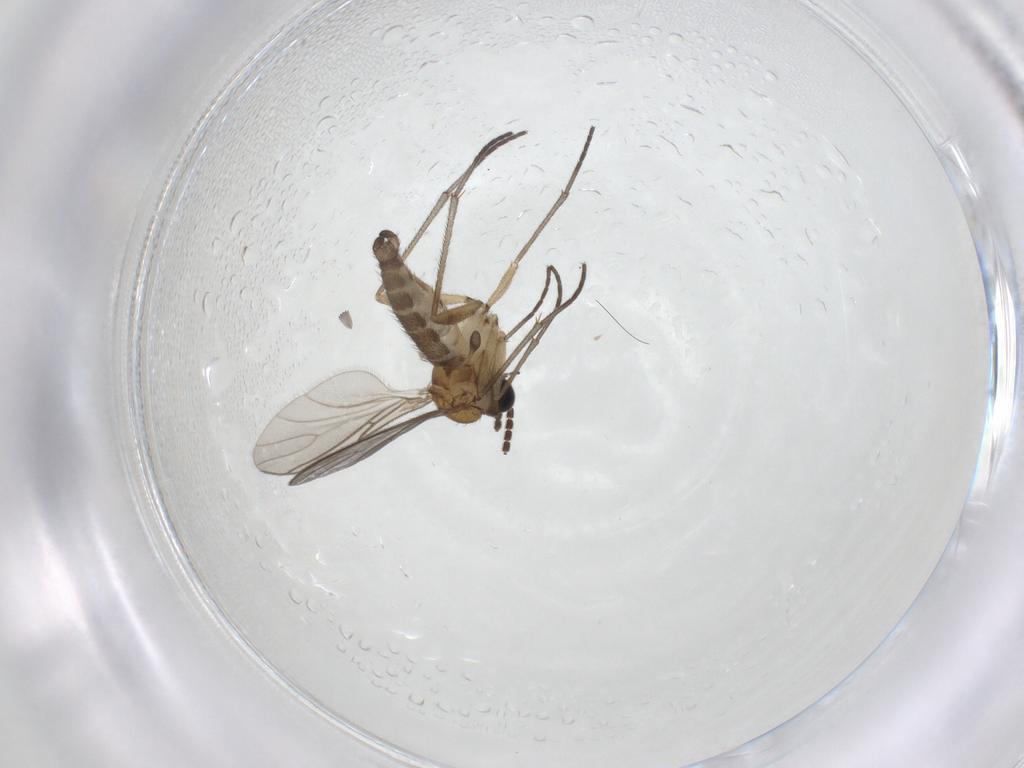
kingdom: Animalia
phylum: Arthropoda
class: Insecta
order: Diptera
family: Sciaridae
